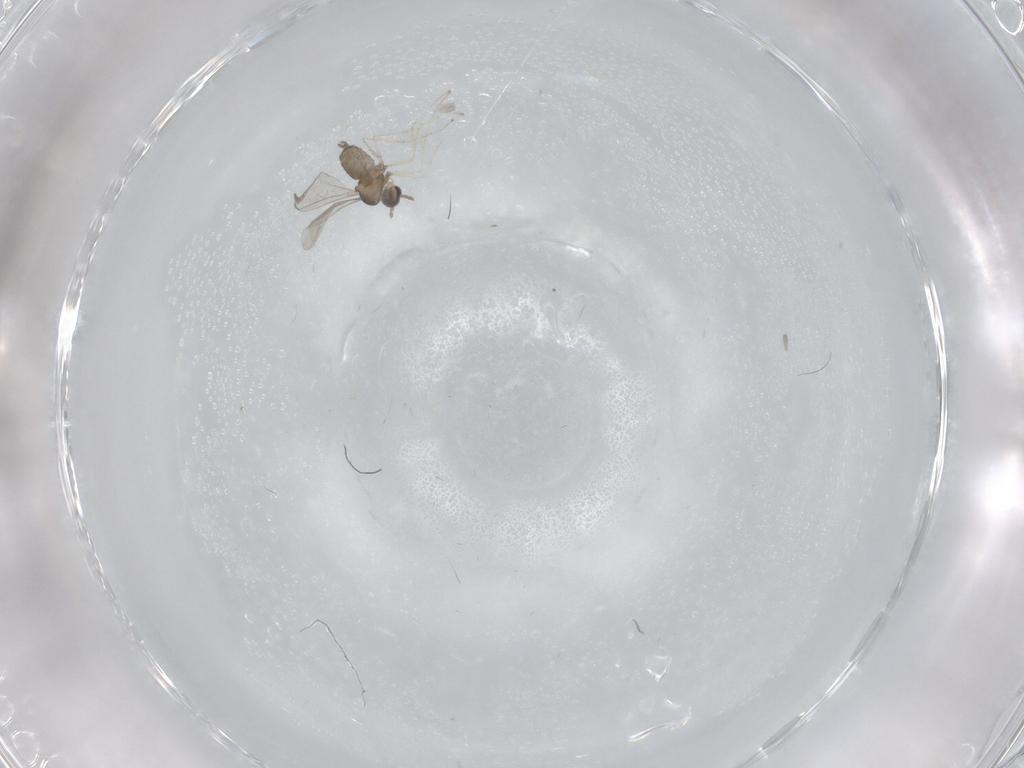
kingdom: Animalia
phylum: Arthropoda
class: Insecta
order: Diptera
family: Cecidomyiidae
